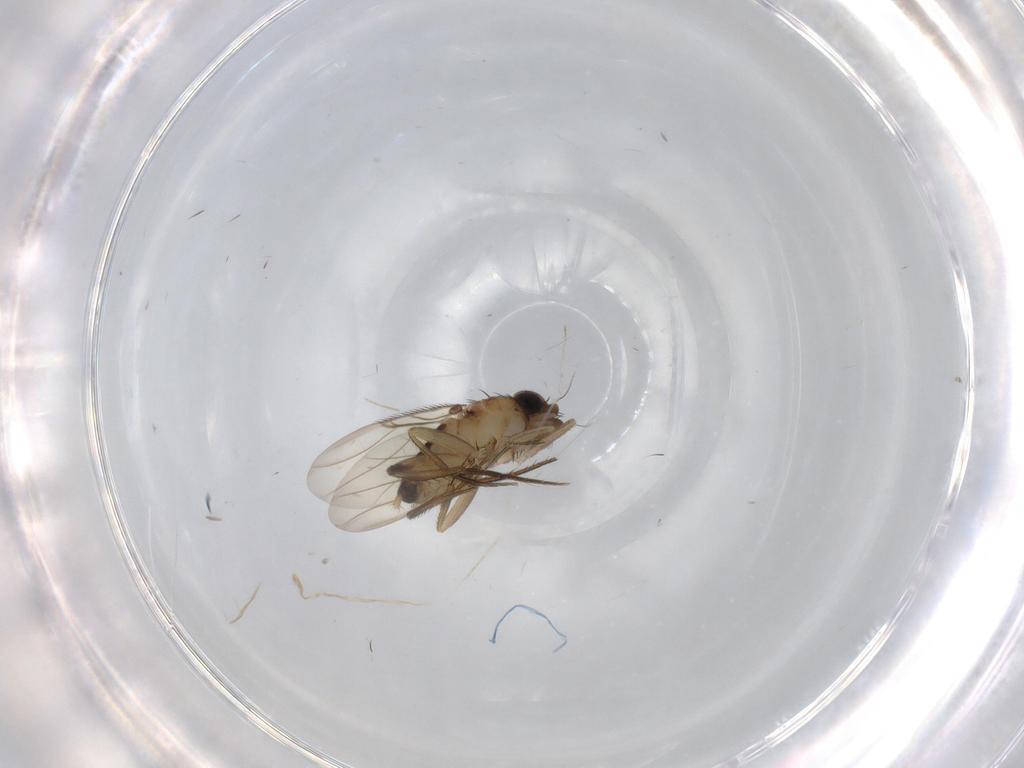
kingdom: Animalia
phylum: Arthropoda
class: Insecta
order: Diptera
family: Phoridae
